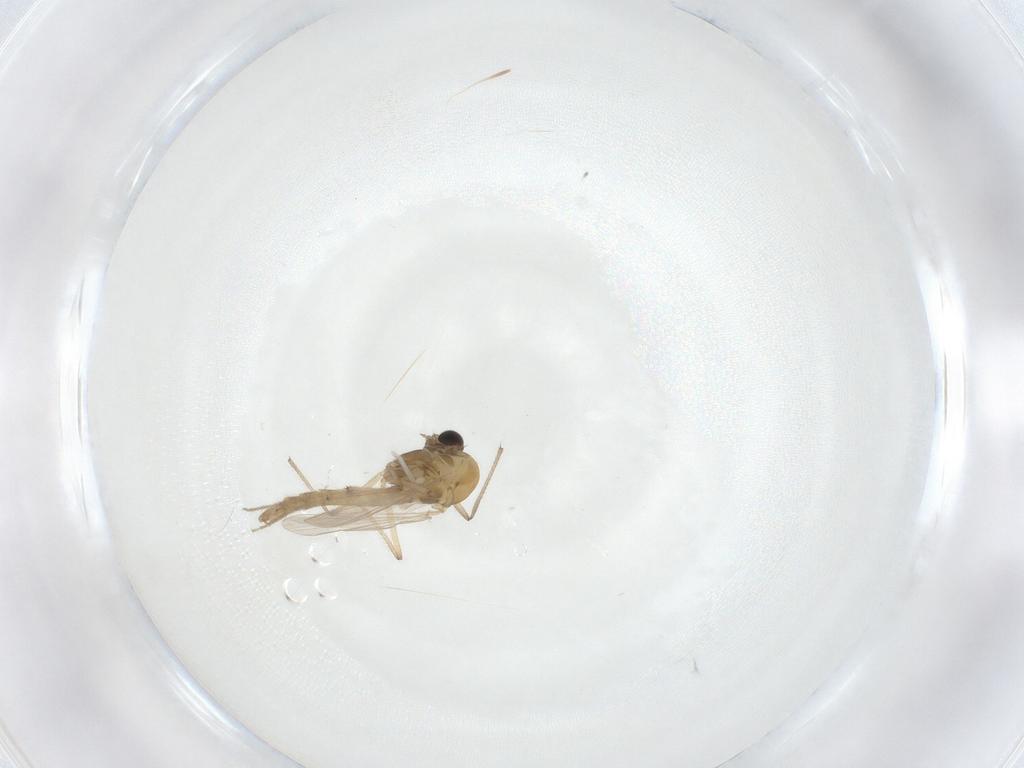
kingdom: Animalia
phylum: Arthropoda
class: Insecta
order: Diptera
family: Chironomidae
